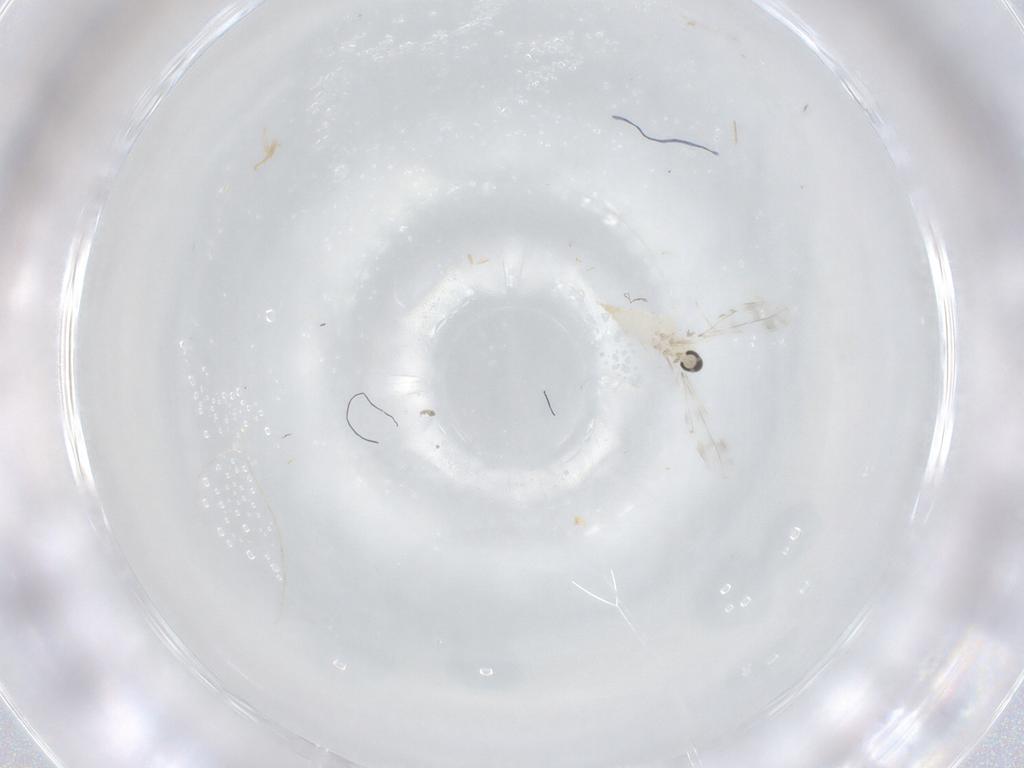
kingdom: Animalia
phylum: Arthropoda
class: Insecta
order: Diptera
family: Cecidomyiidae
